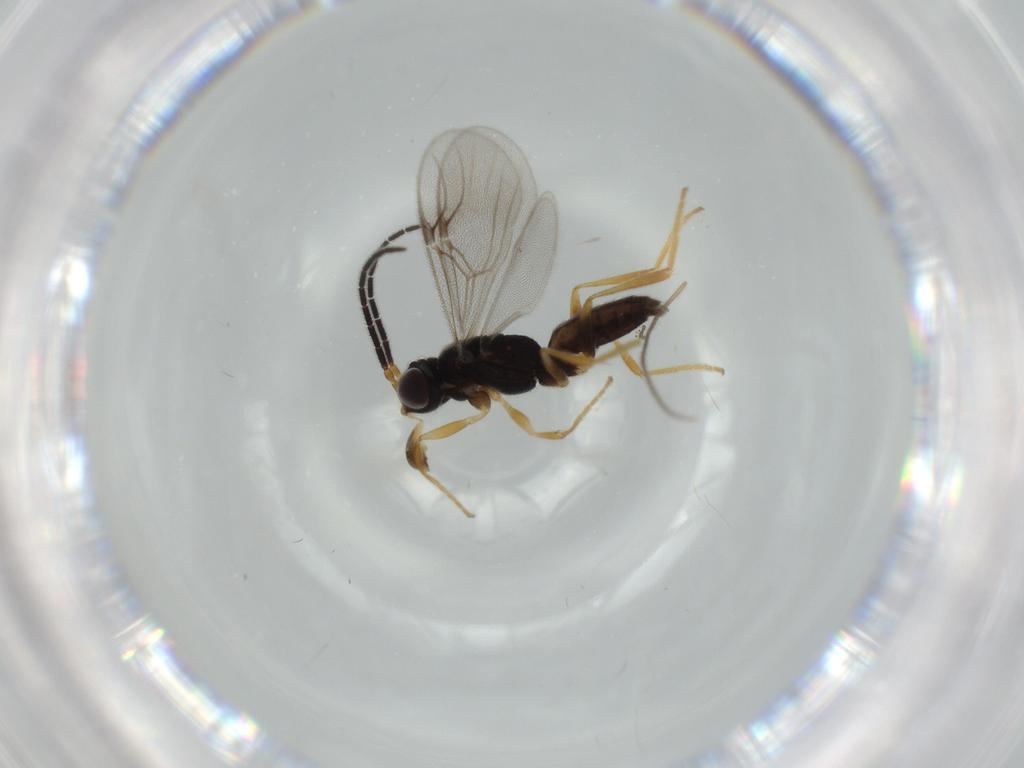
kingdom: Animalia
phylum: Arthropoda
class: Insecta
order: Hymenoptera
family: Dryinidae
